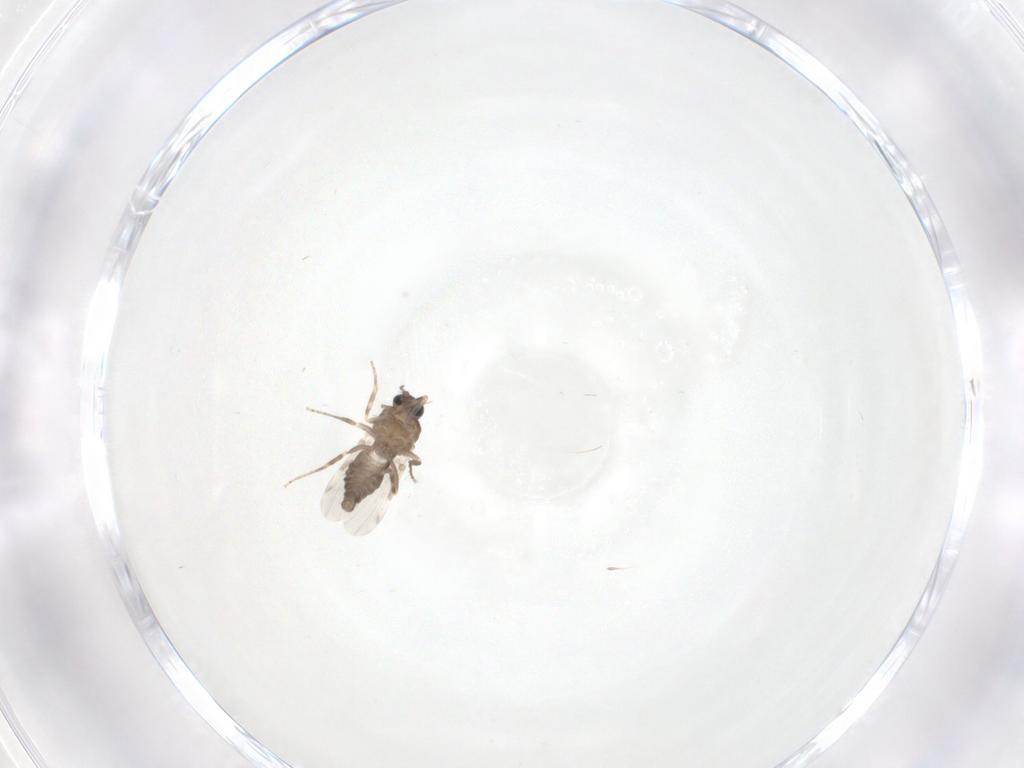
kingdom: Animalia
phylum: Arthropoda
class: Insecta
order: Diptera
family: Ceratopogonidae
